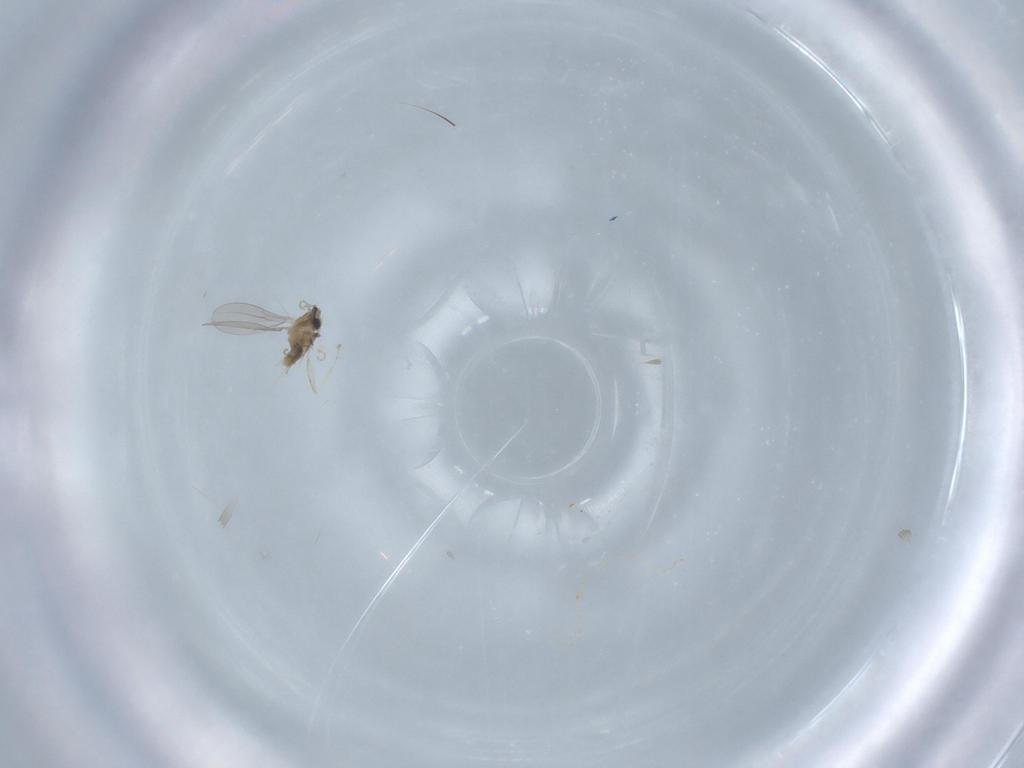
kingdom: Animalia
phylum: Arthropoda
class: Insecta
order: Diptera
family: Cecidomyiidae
